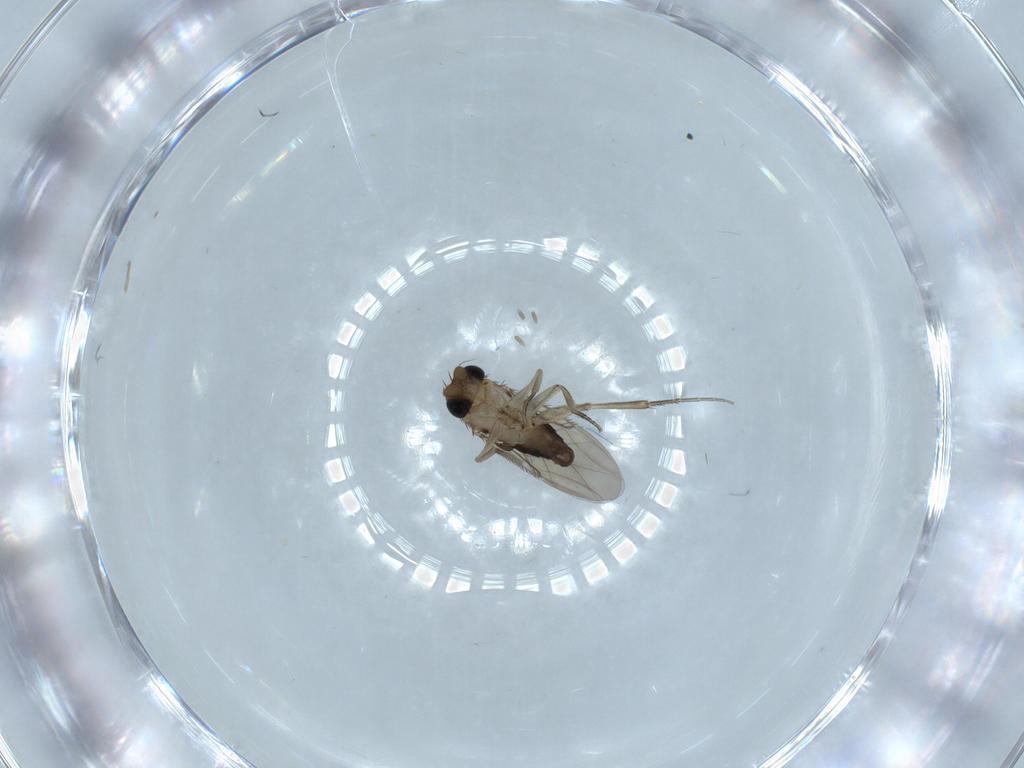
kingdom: Animalia
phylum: Arthropoda
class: Insecta
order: Diptera
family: Phoridae
